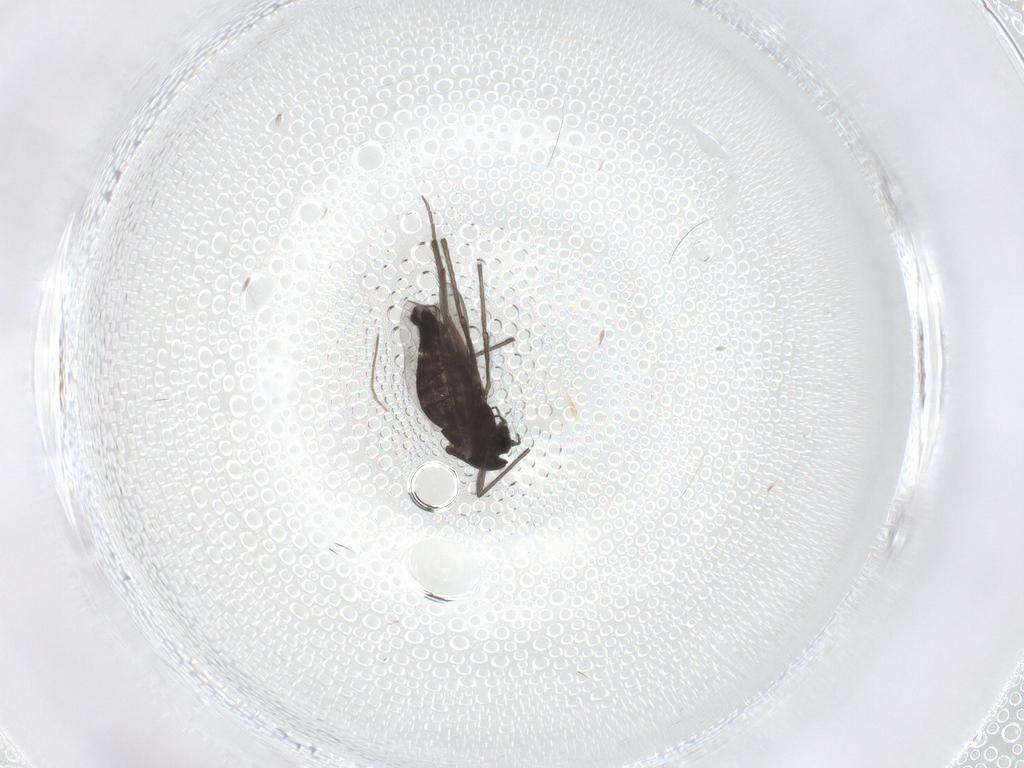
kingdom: Animalia
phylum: Arthropoda
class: Insecta
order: Diptera
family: Chironomidae
